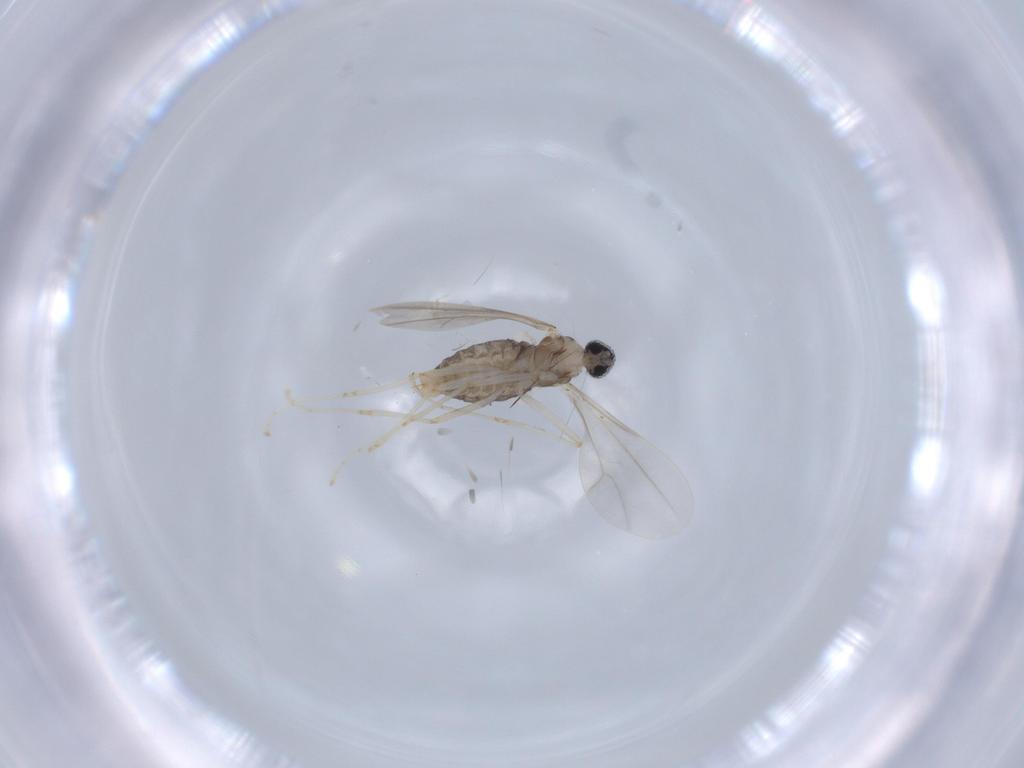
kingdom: Animalia
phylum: Arthropoda
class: Insecta
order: Diptera
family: Cecidomyiidae
